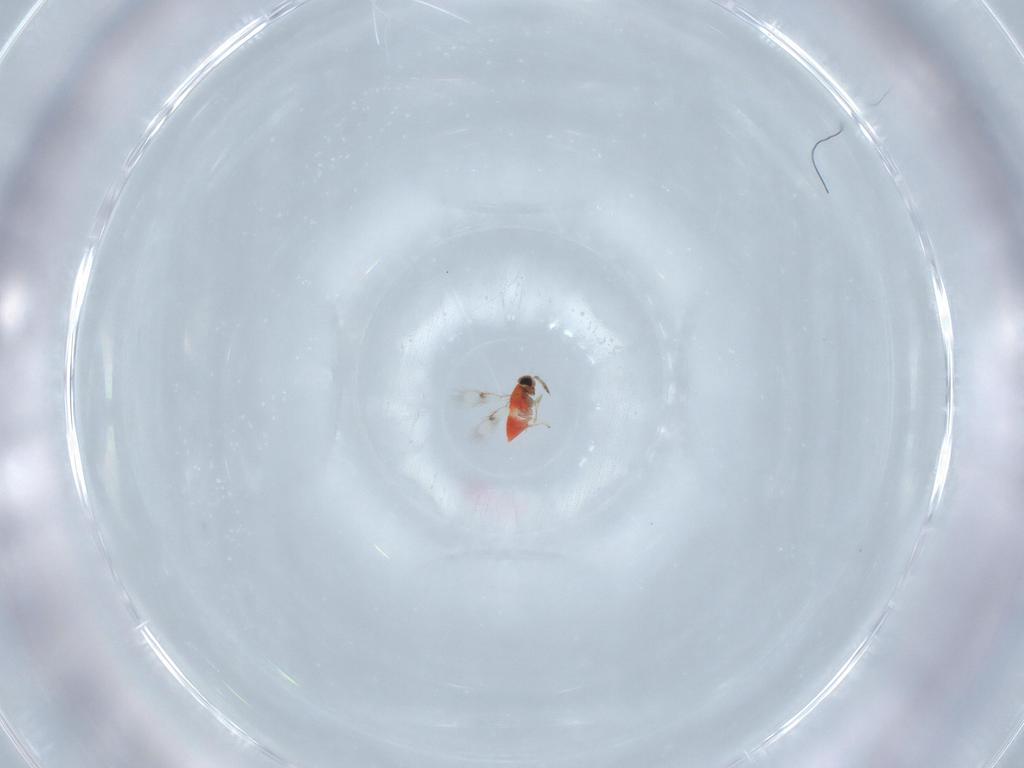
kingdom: Animalia
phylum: Arthropoda
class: Insecta
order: Hymenoptera
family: Trichogrammatidae
